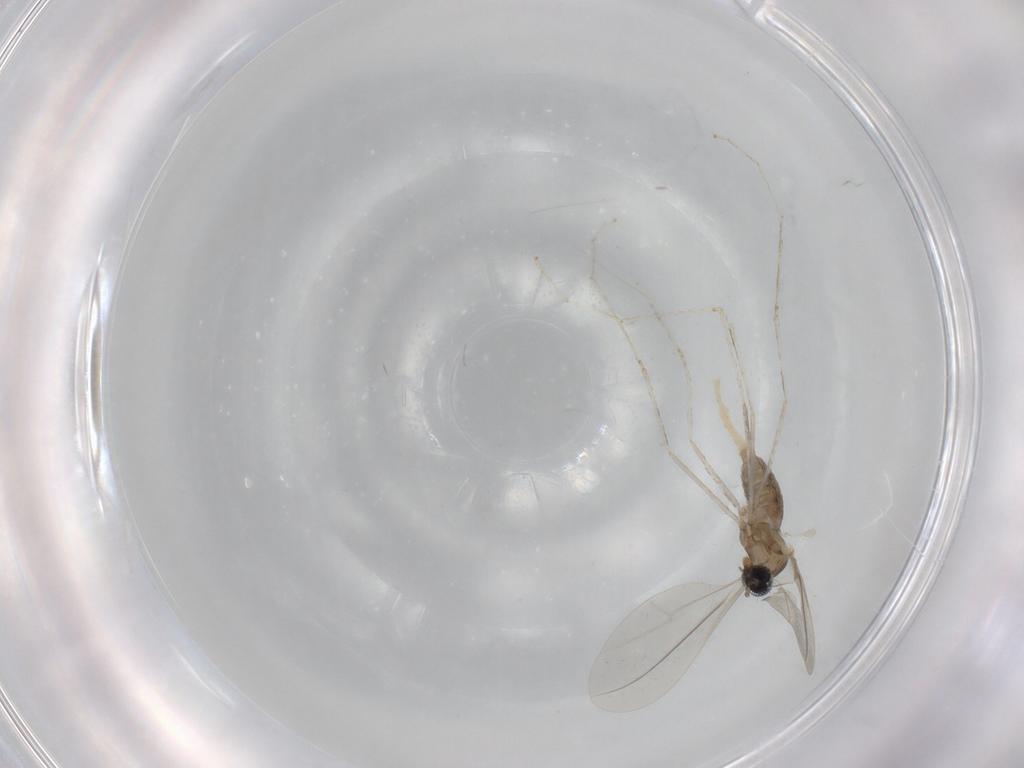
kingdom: Animalia
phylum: Arthropoda
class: Insecta
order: Diptera
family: Cecidomyiidae
